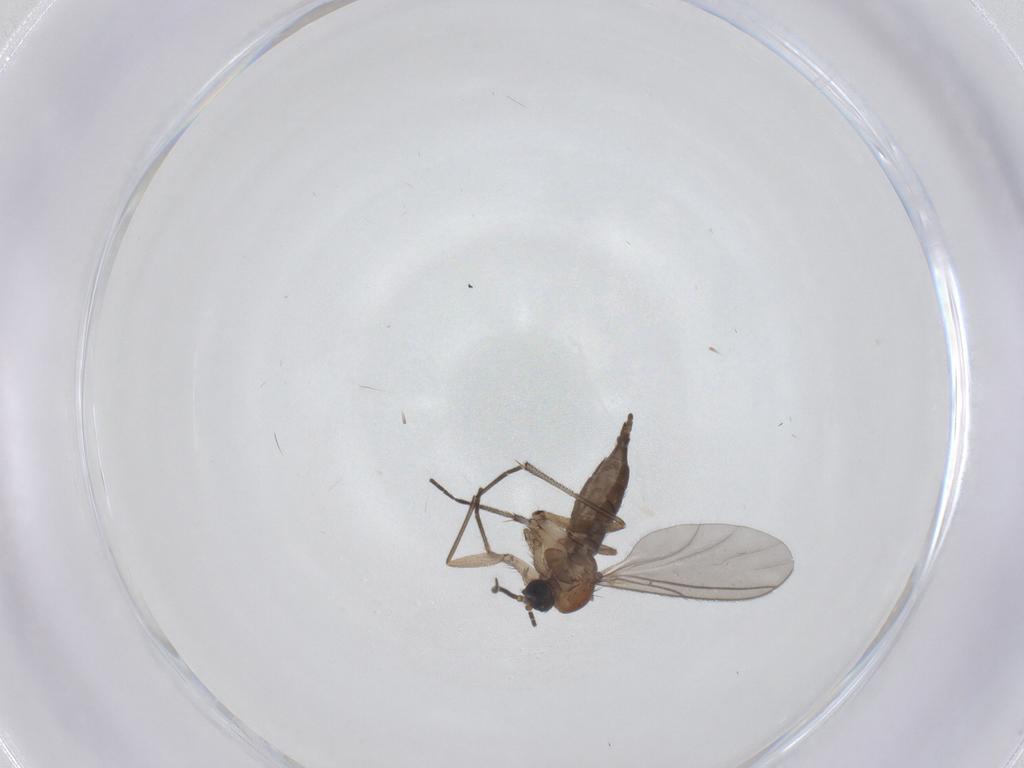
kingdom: Animalia
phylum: Arthropoda
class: Insecta
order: Diptera
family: Sciaridae
